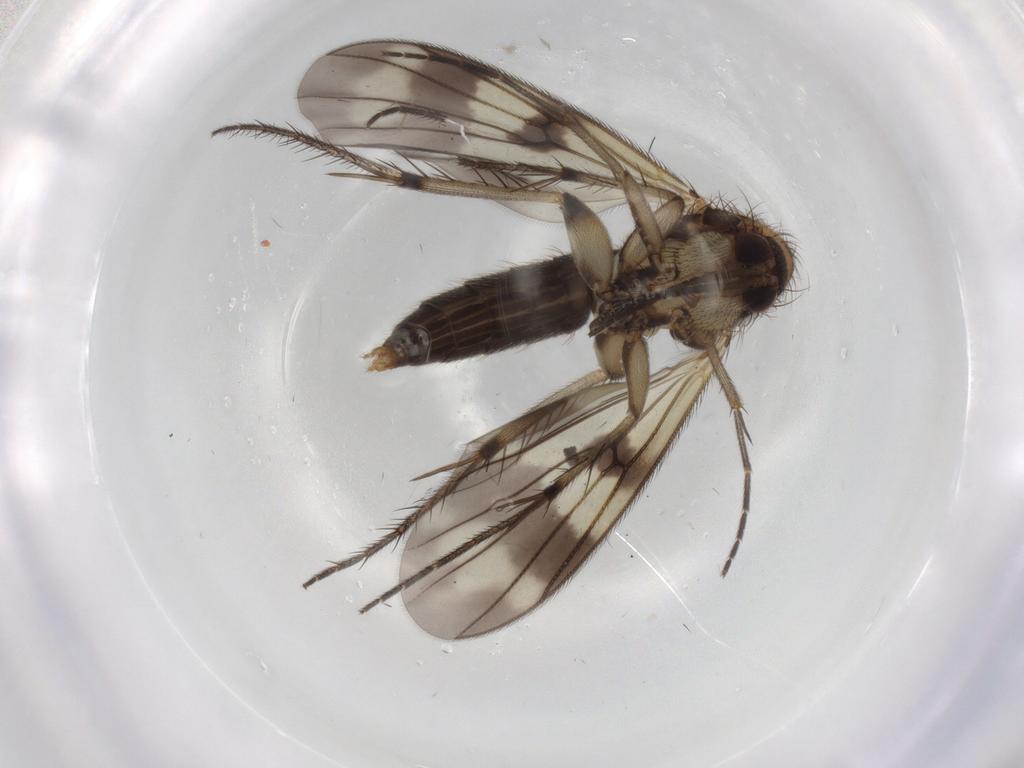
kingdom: Animalia
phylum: Arthropoda
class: Insecta
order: Diptera
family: Mycetophilidae
